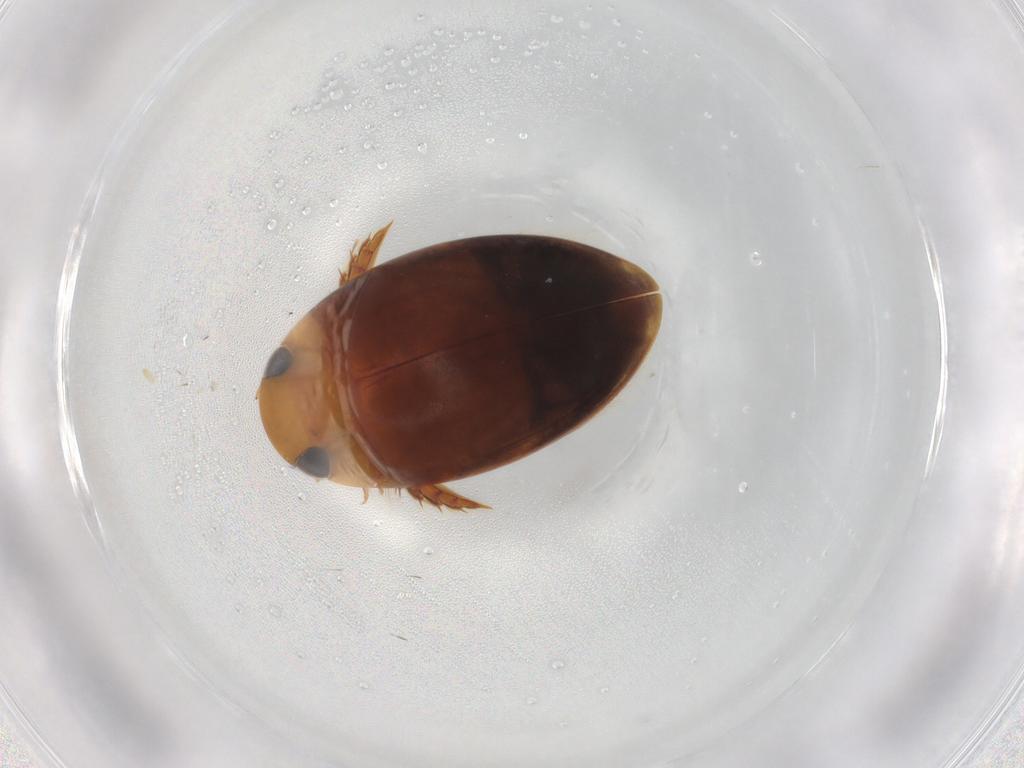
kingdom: Animalia
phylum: Arthropoda
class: Insecta
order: Coleoptera
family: Dytiscidae
